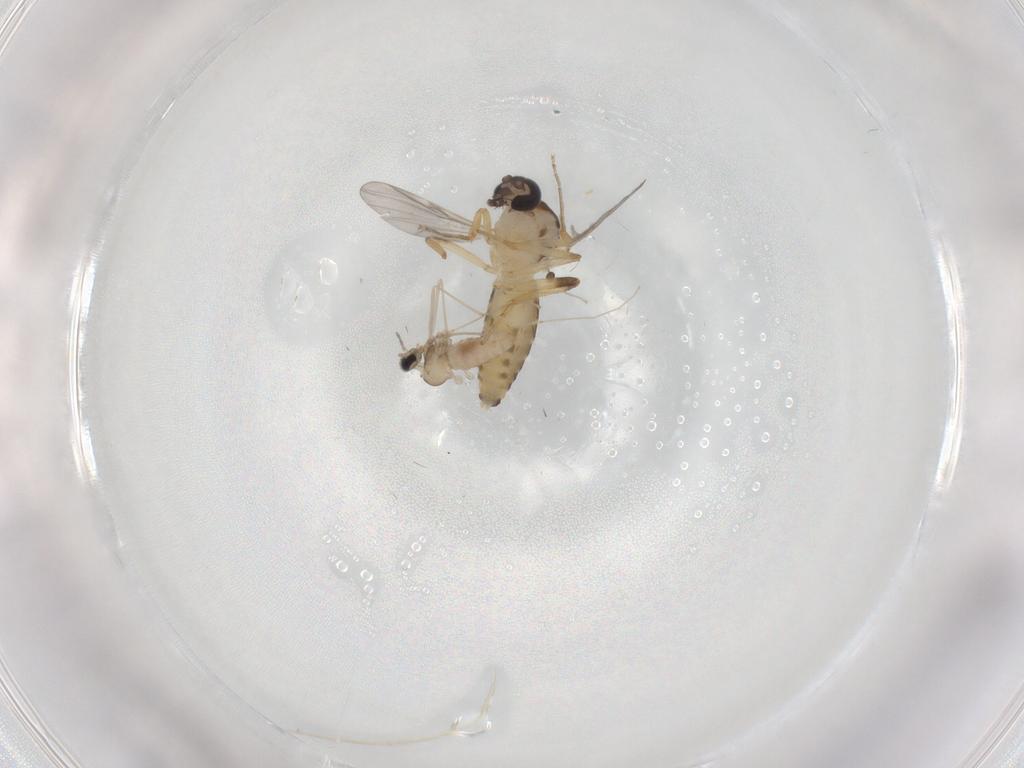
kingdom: Animalia
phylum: Arthropoda
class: Insecta
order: Diptera
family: Ceratopogonidae
